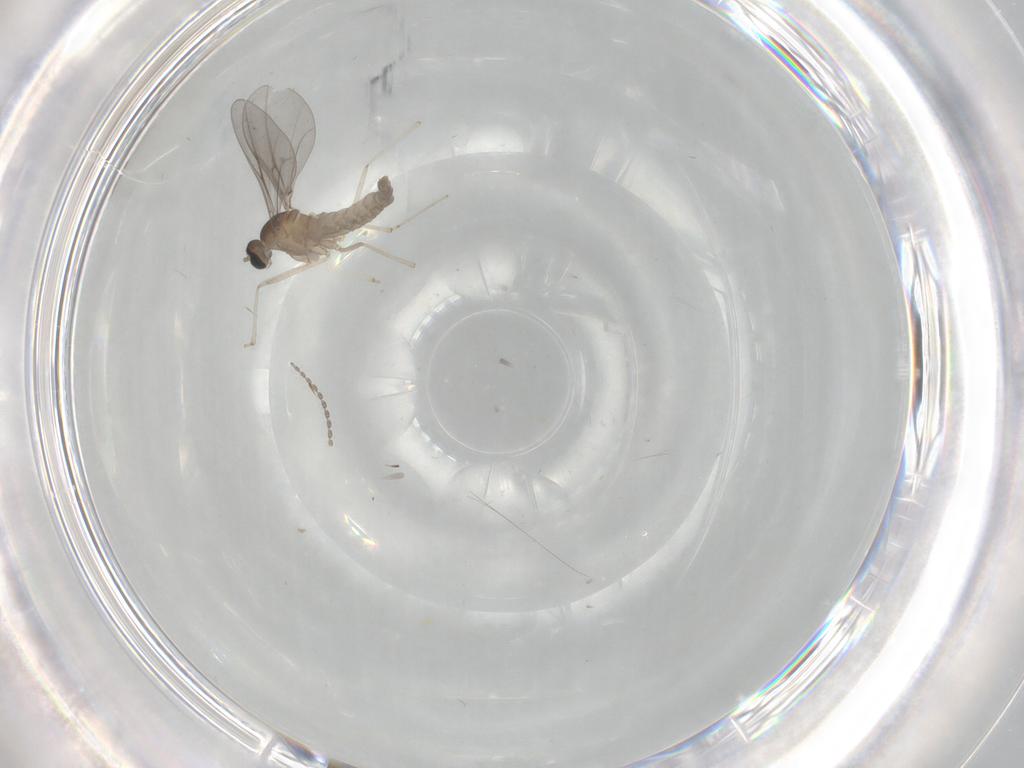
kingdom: Animalia
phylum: Arthropoda
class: Insecta
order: Diptera
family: Cecidomyiidae
